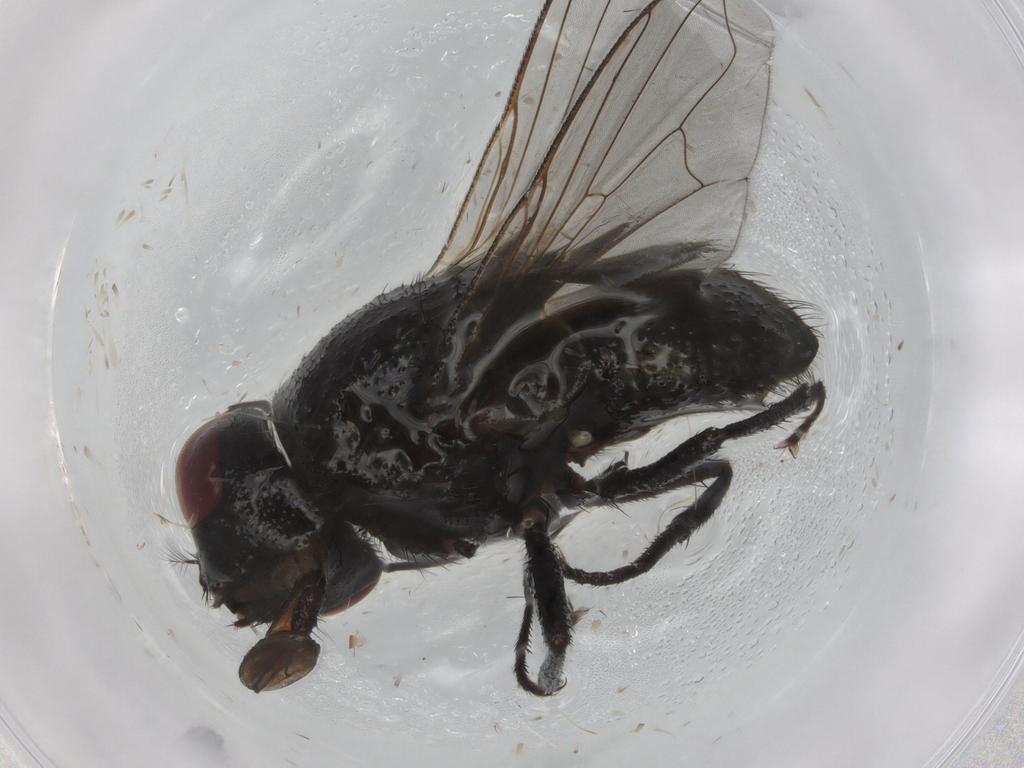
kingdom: Animalia
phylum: Arthropoda
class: Insecta
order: Diptera
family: Muscidae
